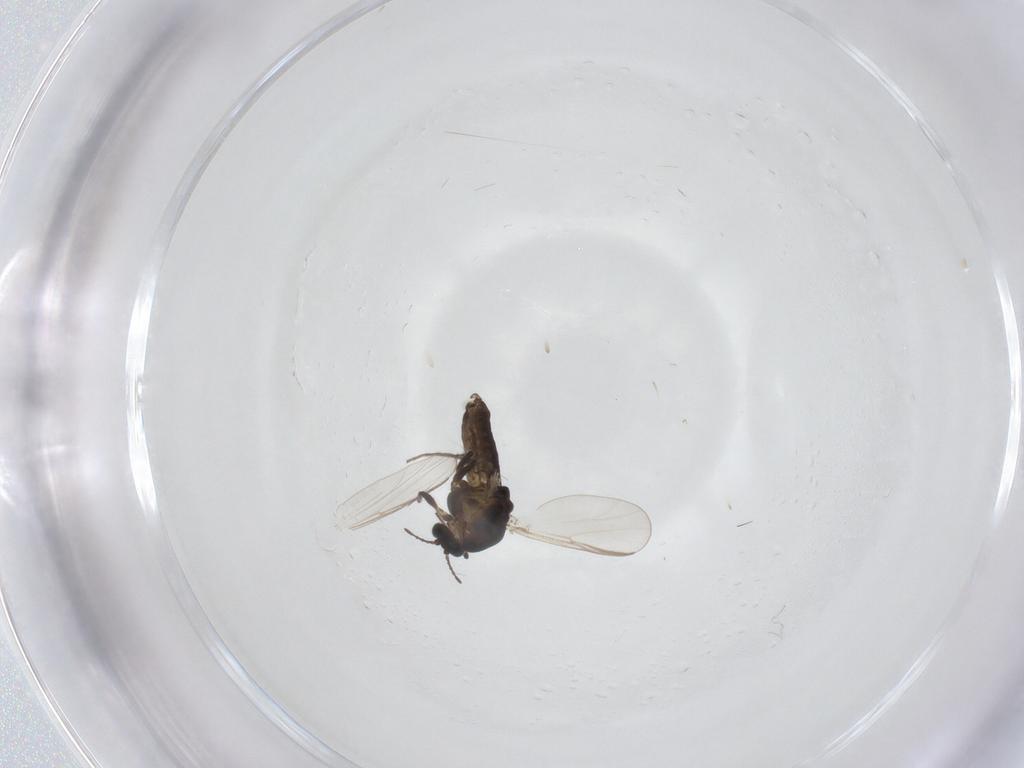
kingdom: Animalia
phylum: Arthropoda
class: Insecta
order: Diptera
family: Chironomidae
